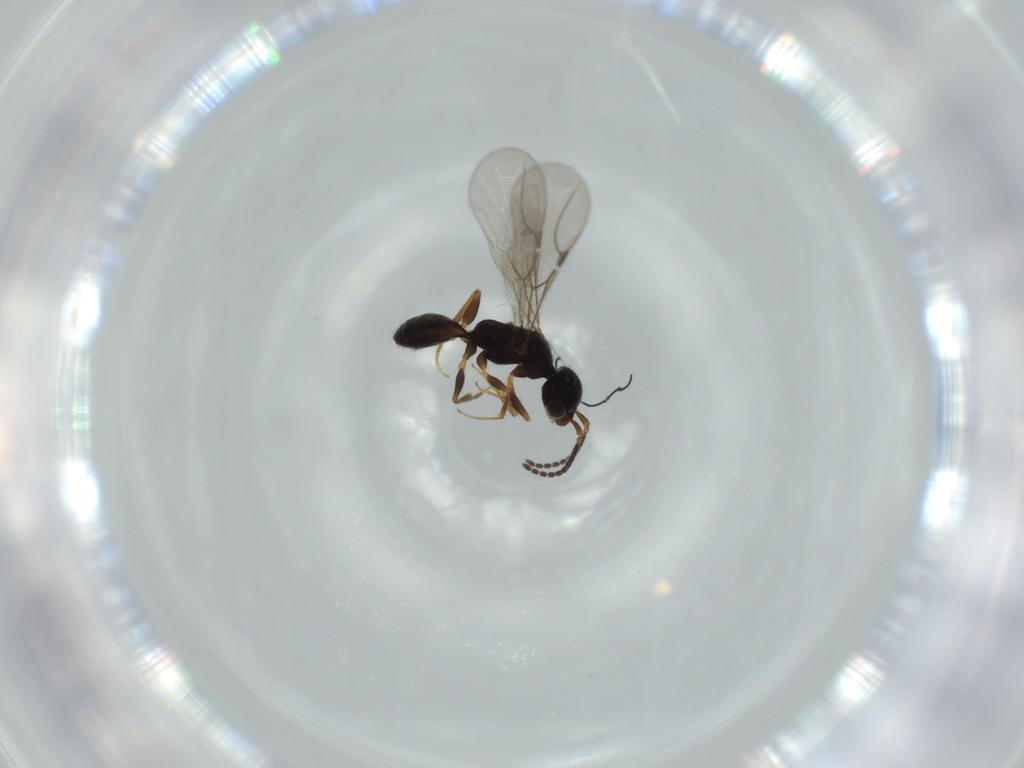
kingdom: Animalia
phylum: Arthropoda
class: Insecta
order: Hymenoptera
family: Bethylidae
